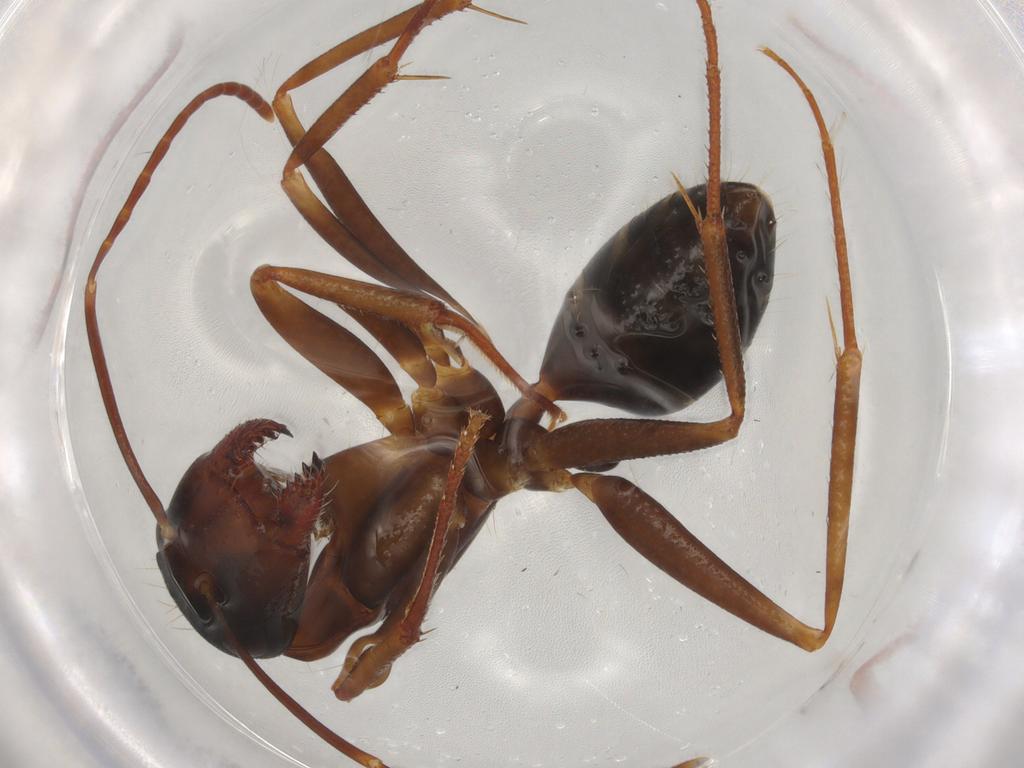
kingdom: Animalia
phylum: Arthropoda
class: Insecta
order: Hymenoptera
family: Formicidae
